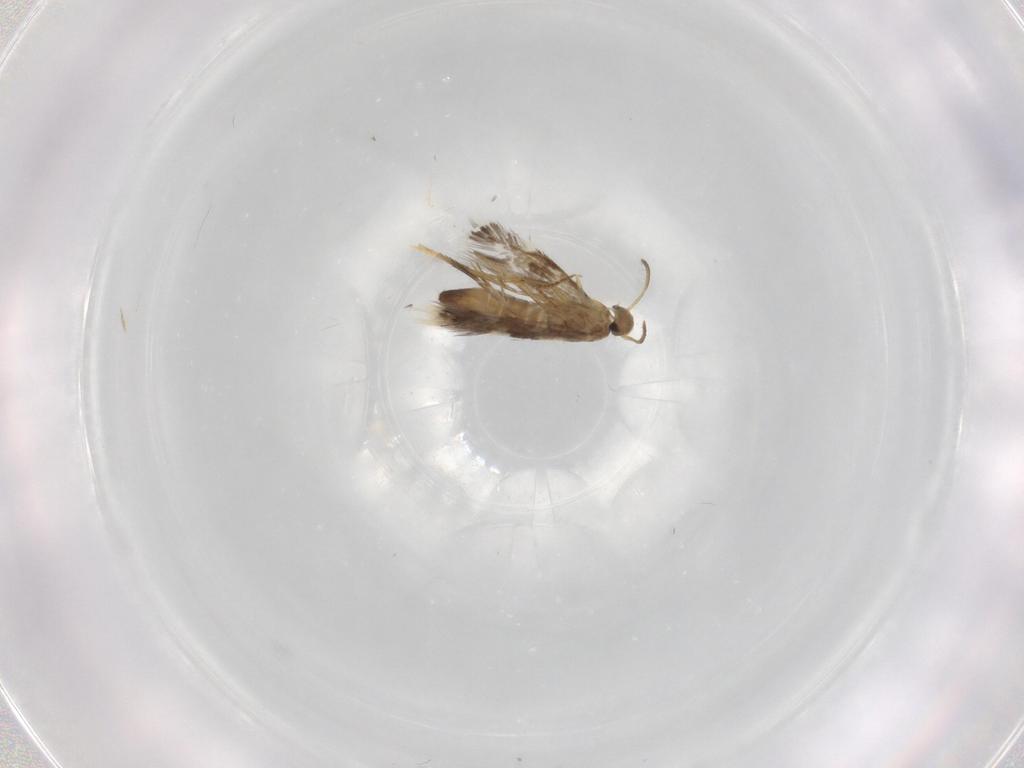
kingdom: Animalia
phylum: Arthropoda
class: Insecta
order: Lepidoptera
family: Heliozelidae
